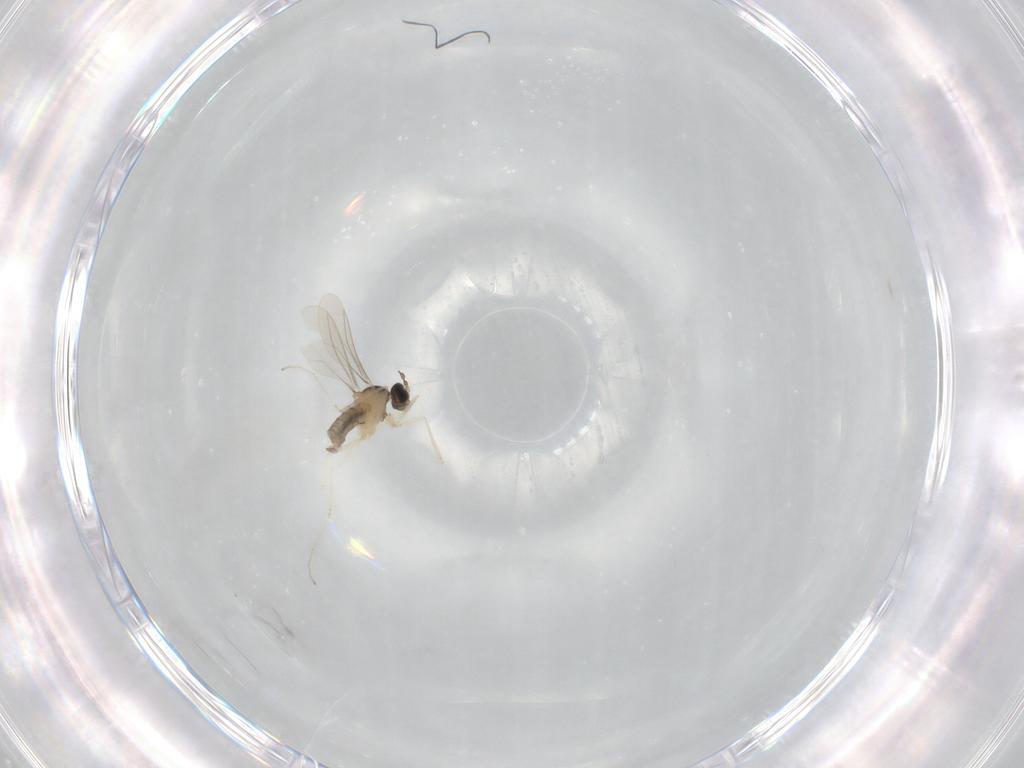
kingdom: Animalia
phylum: Arthropoda
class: Insecta
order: Diptera
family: Cecidomyiidae
